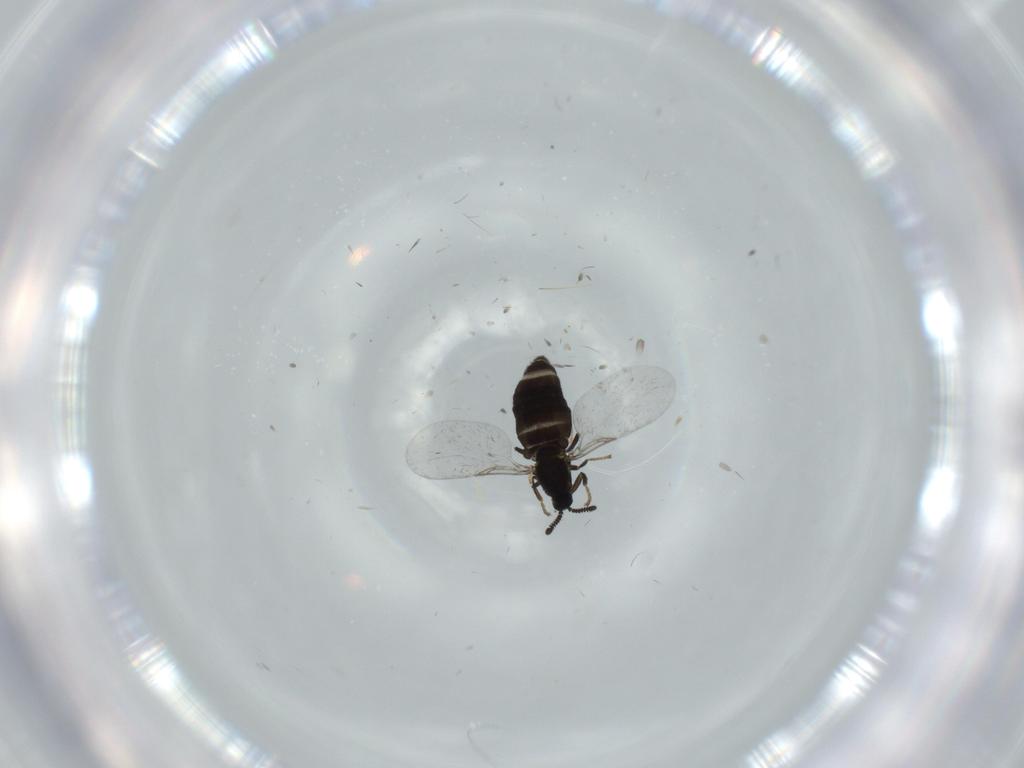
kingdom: Animalia
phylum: Arthropoda
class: Insecta
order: Diptera
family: Scatopsidae
